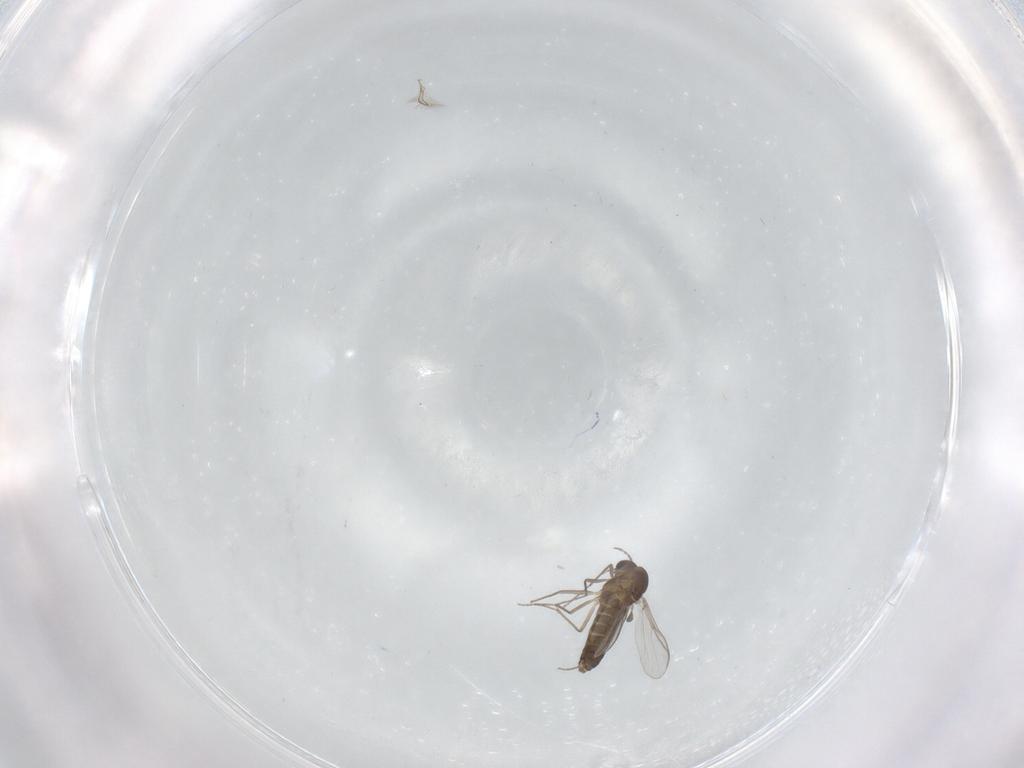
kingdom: Animalia
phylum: Arthropoda
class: Insecta
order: Diptera
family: Chironomidae
